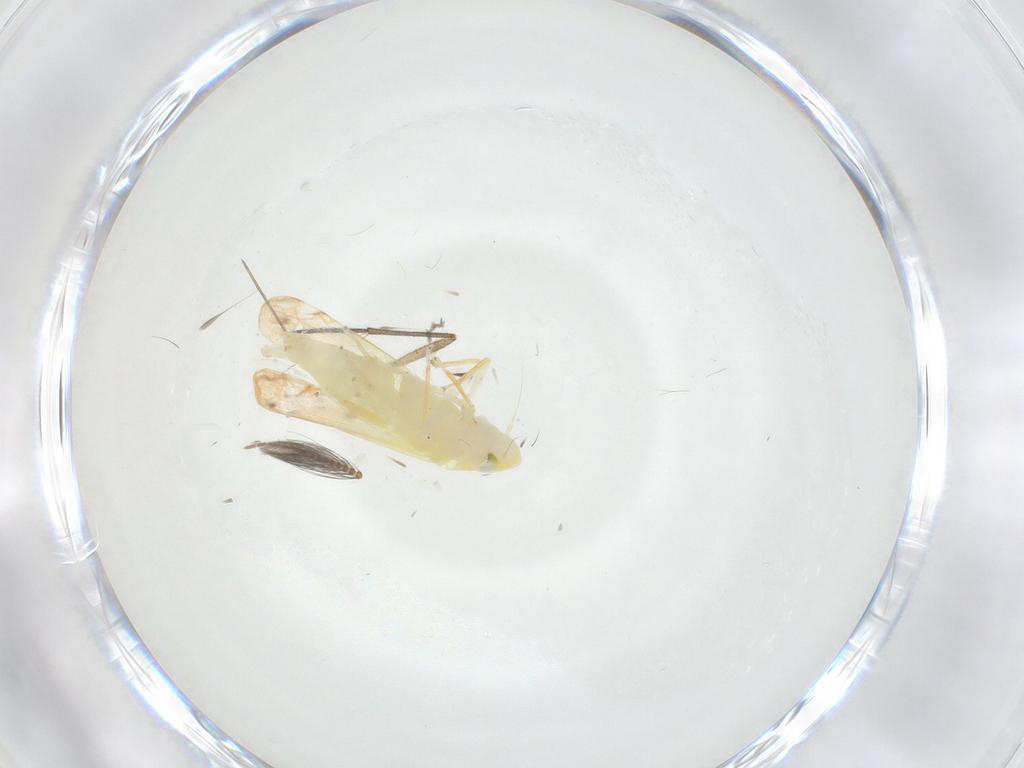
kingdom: Animalia
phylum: Arthropoda
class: Insecta
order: Hemiptera
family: Cicadellidae
